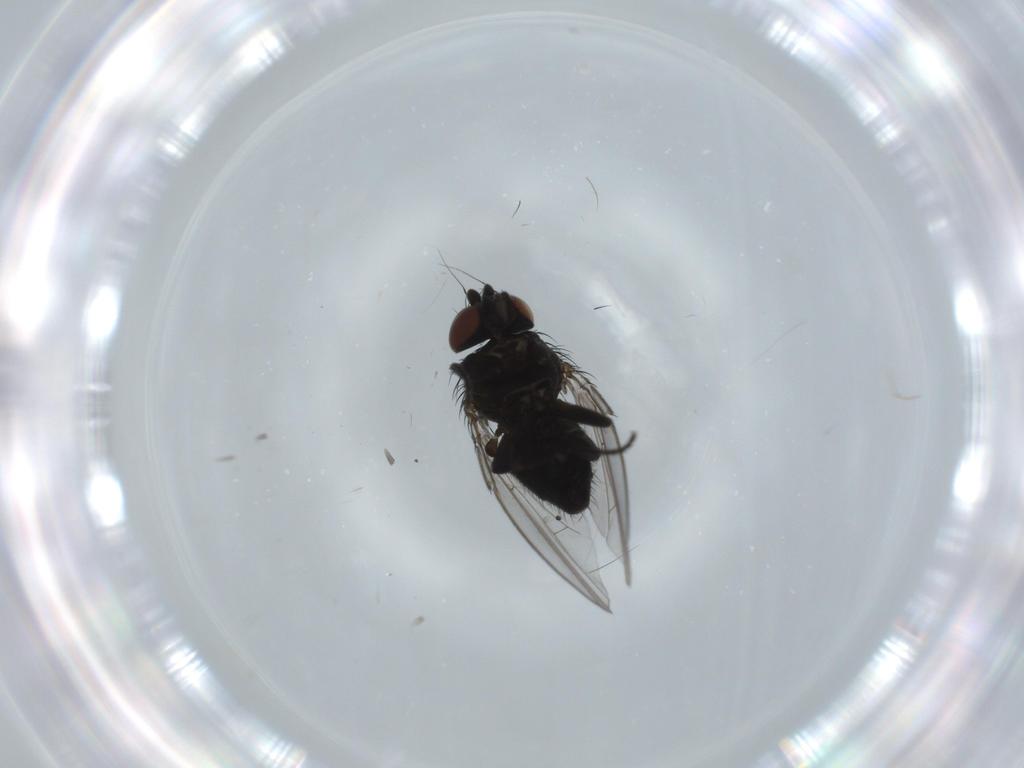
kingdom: Animalia
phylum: Arthropoda
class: Insecta
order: Diptera
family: Milichiidae
